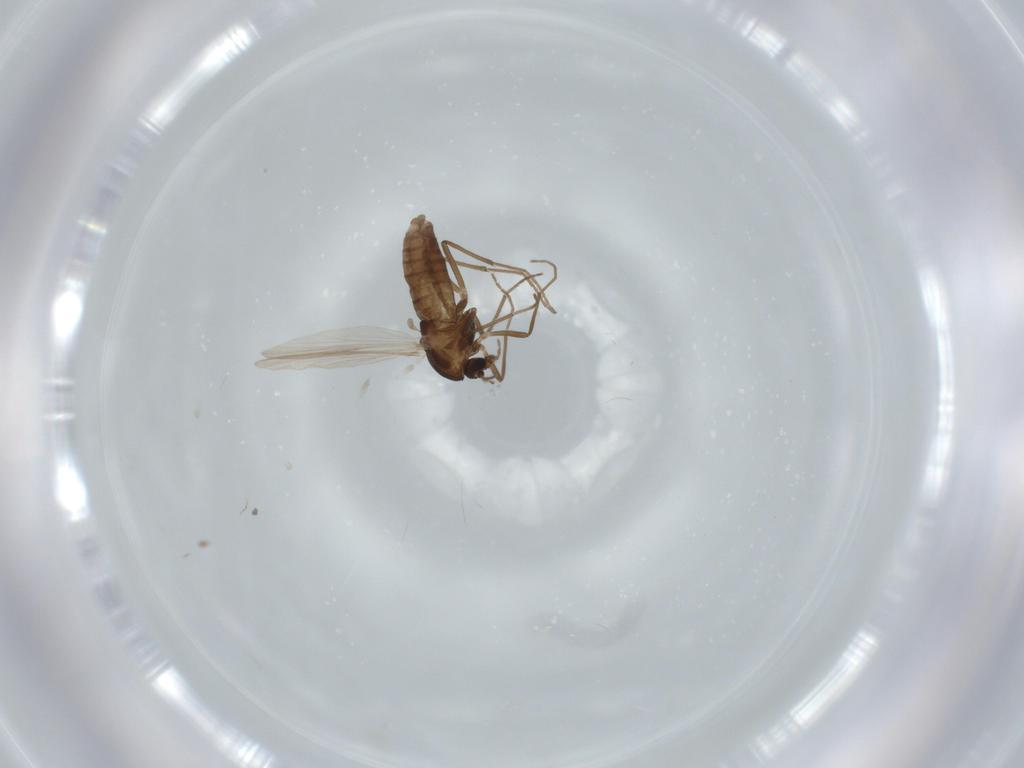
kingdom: Animalia
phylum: Arthropoda
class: Insecta
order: Diptera
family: Chironomidae
